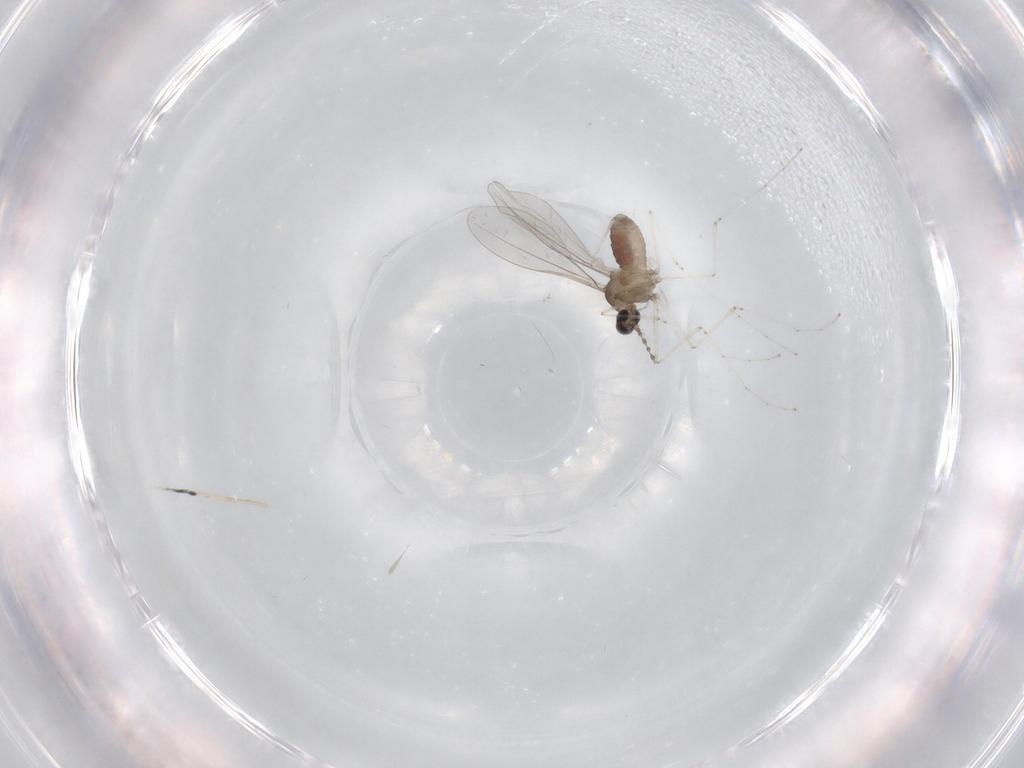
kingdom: Animalia
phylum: Arthropoda
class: Insecta
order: Diptera
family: Cecidomyiidae
